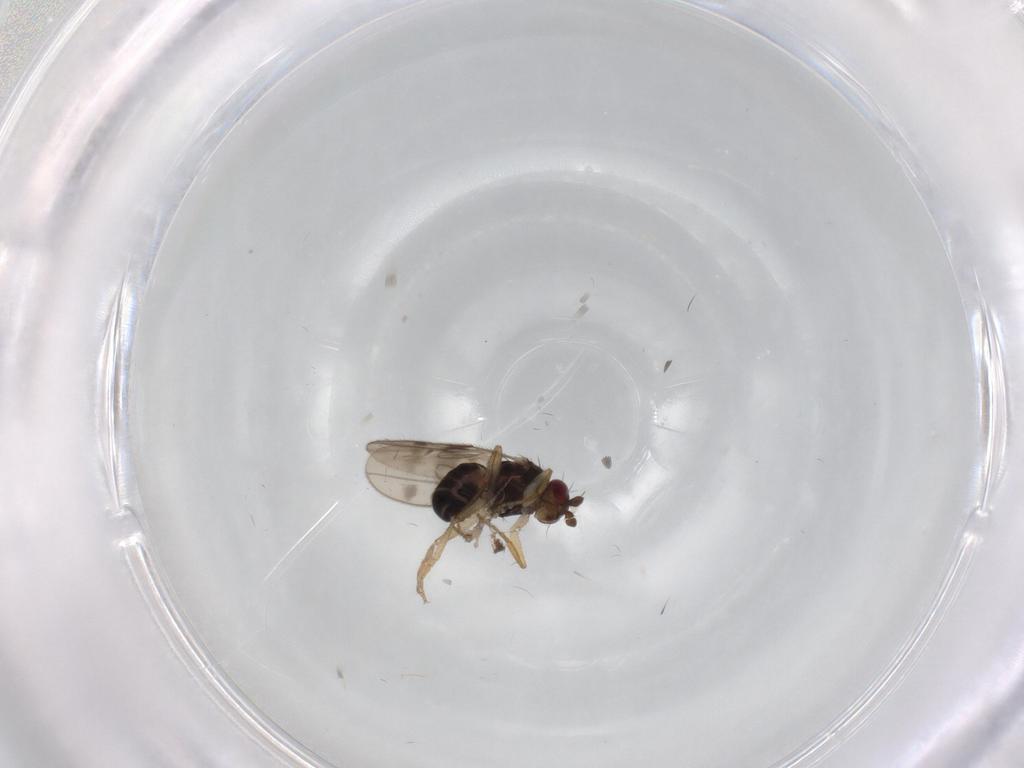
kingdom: Animalia
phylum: Arthropoda
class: Insecta
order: Diptera
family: Sphaeroceridae
